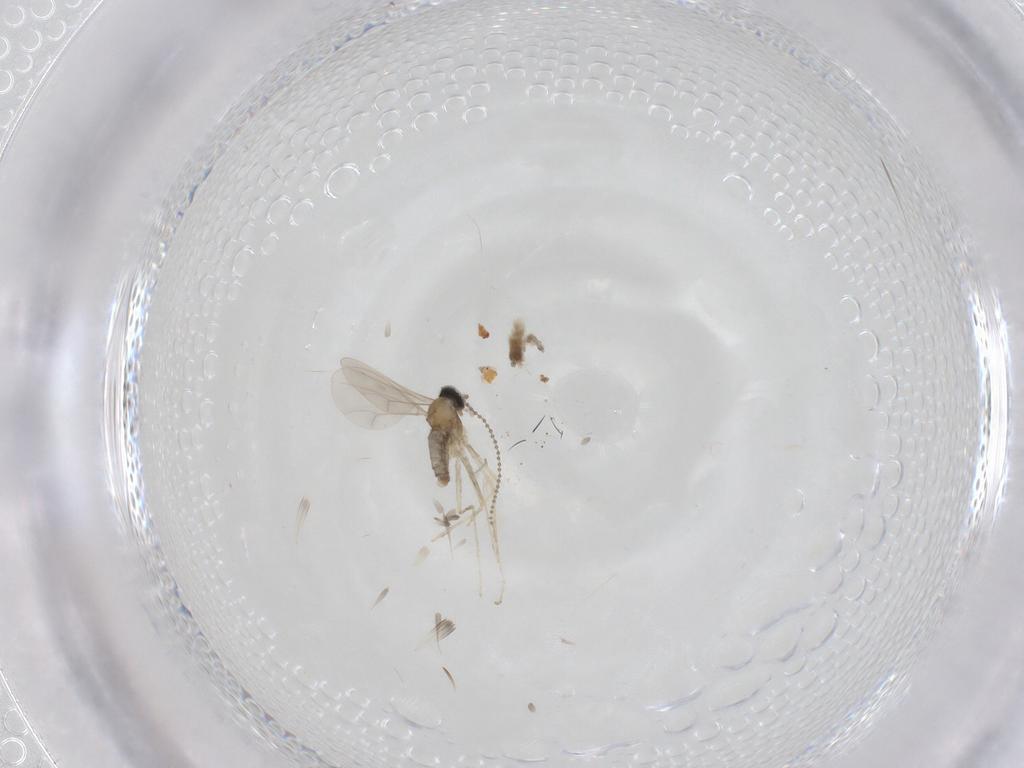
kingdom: Animalia
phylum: Arthropoda
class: Insecta
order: Diptera
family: Cecidomyiidae
